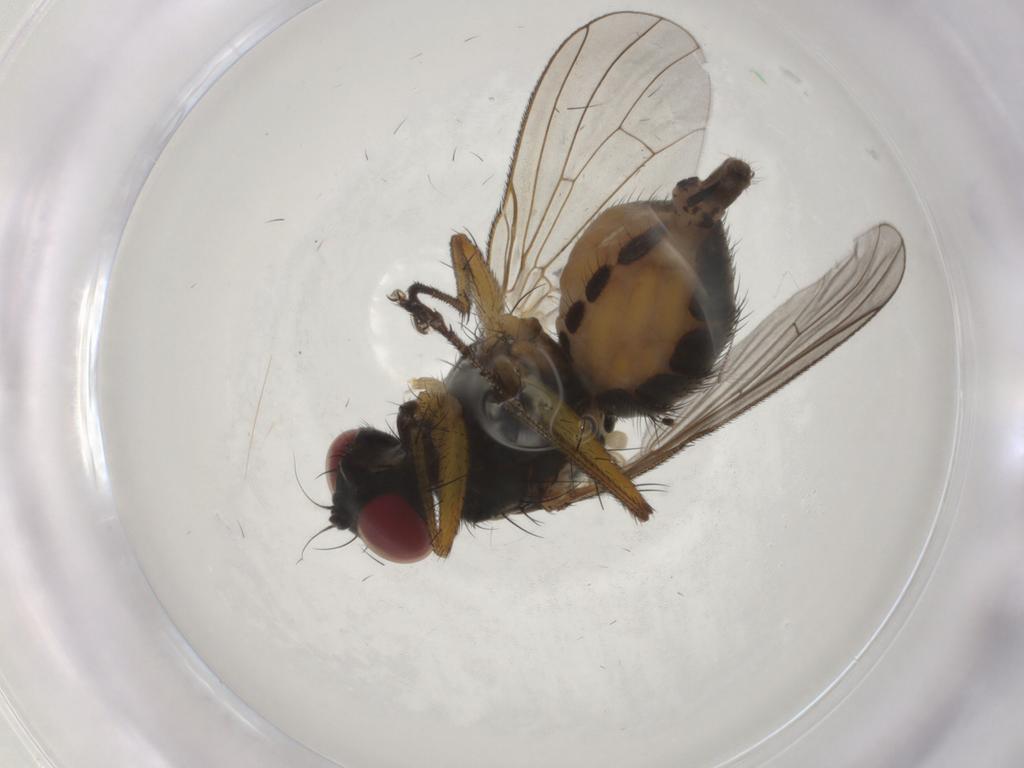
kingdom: Animalia
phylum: Arthropoda
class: Insecta
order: Diptera
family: Muscidae
